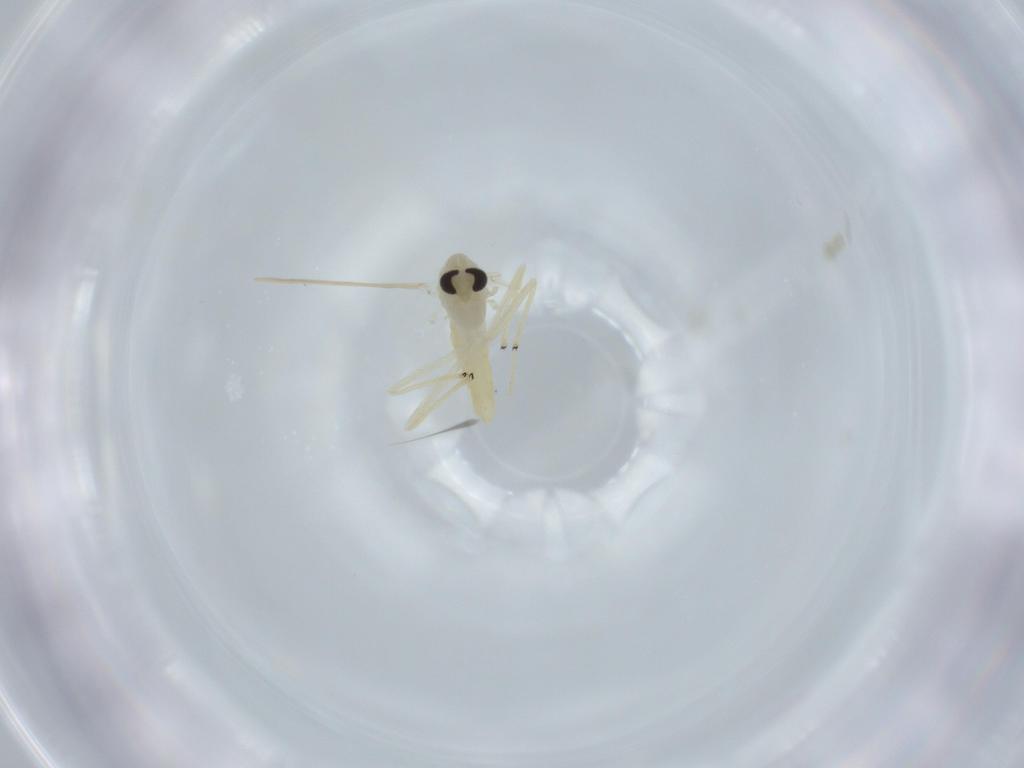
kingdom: Animalia
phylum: Arthropoda
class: Insecta
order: Diptera
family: Chironomidae
